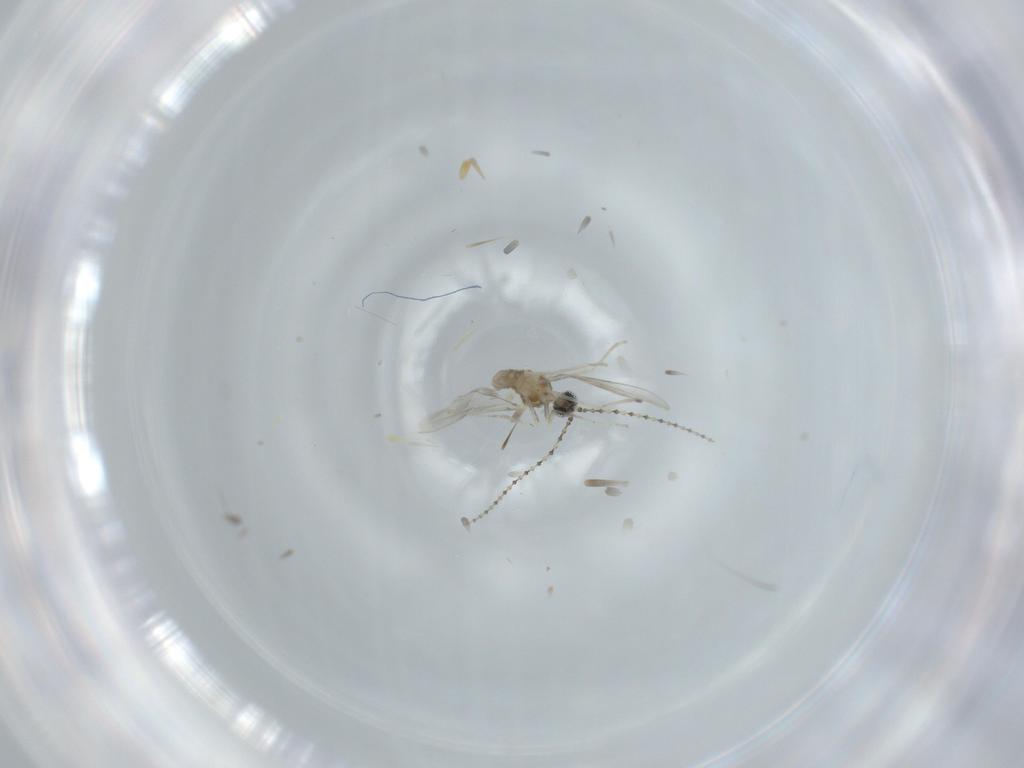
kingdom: Animalia
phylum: Arthropoda
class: Insecta
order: Diptera
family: Cecidomyiidae
